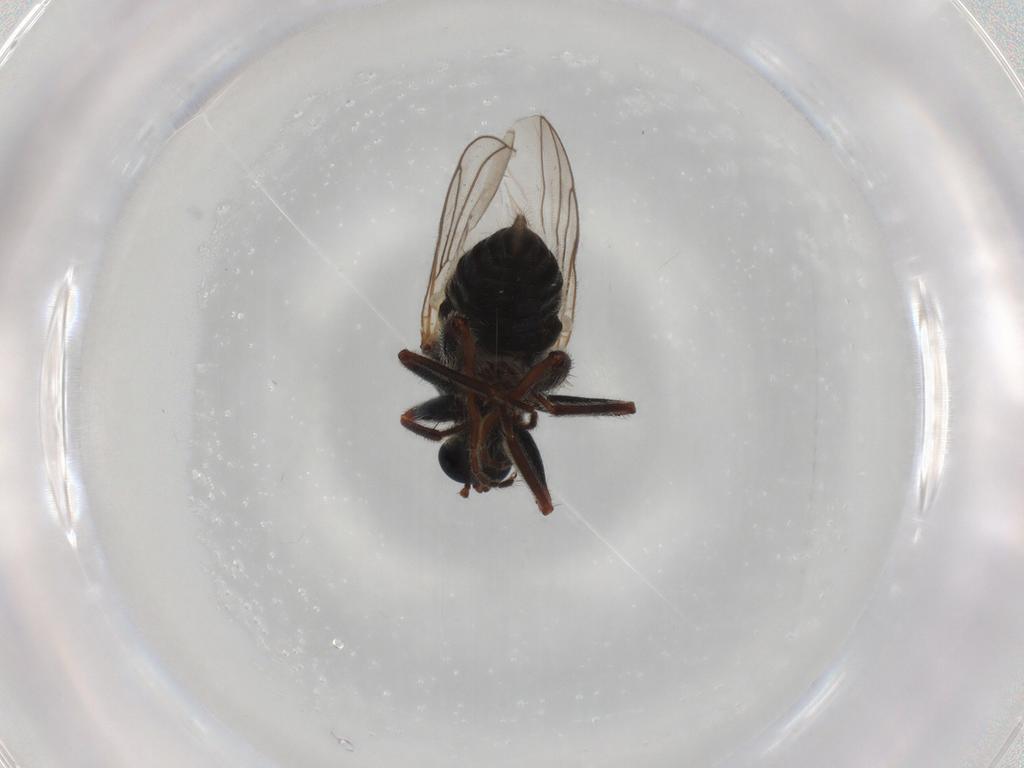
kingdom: Animalia
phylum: Arthropoda
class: Insecta
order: Diptera
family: Hybotidae
